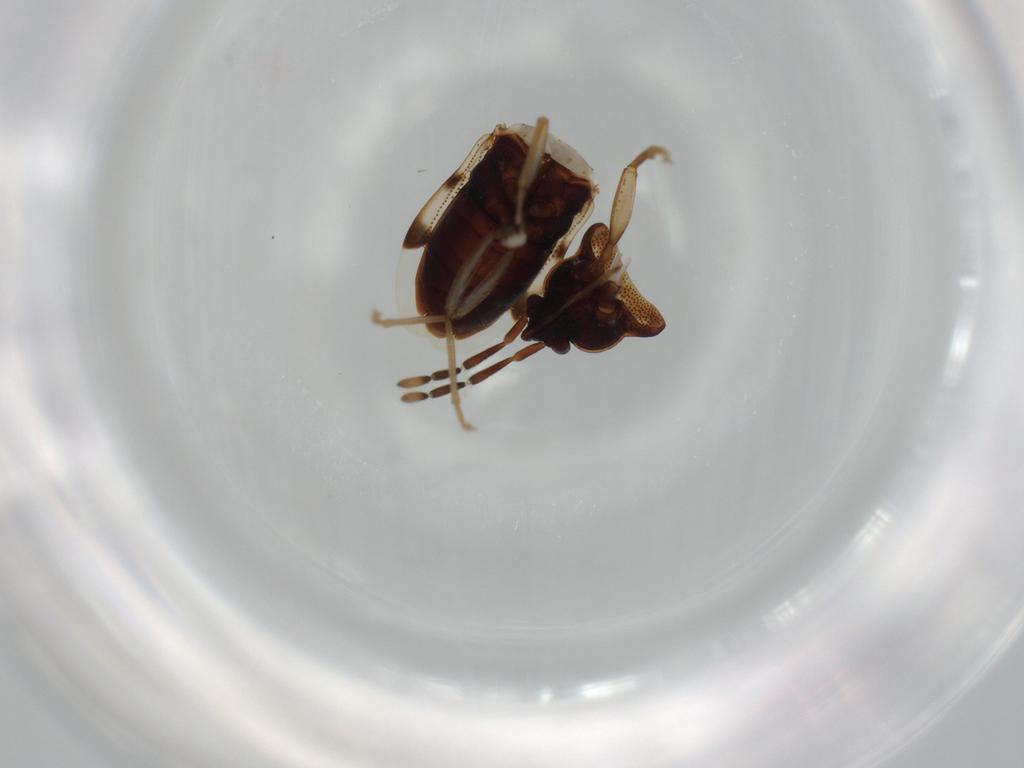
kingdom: Animalia
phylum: Arthropoda
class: Insecta
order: Hemiptera
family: Rhyparochromidae
